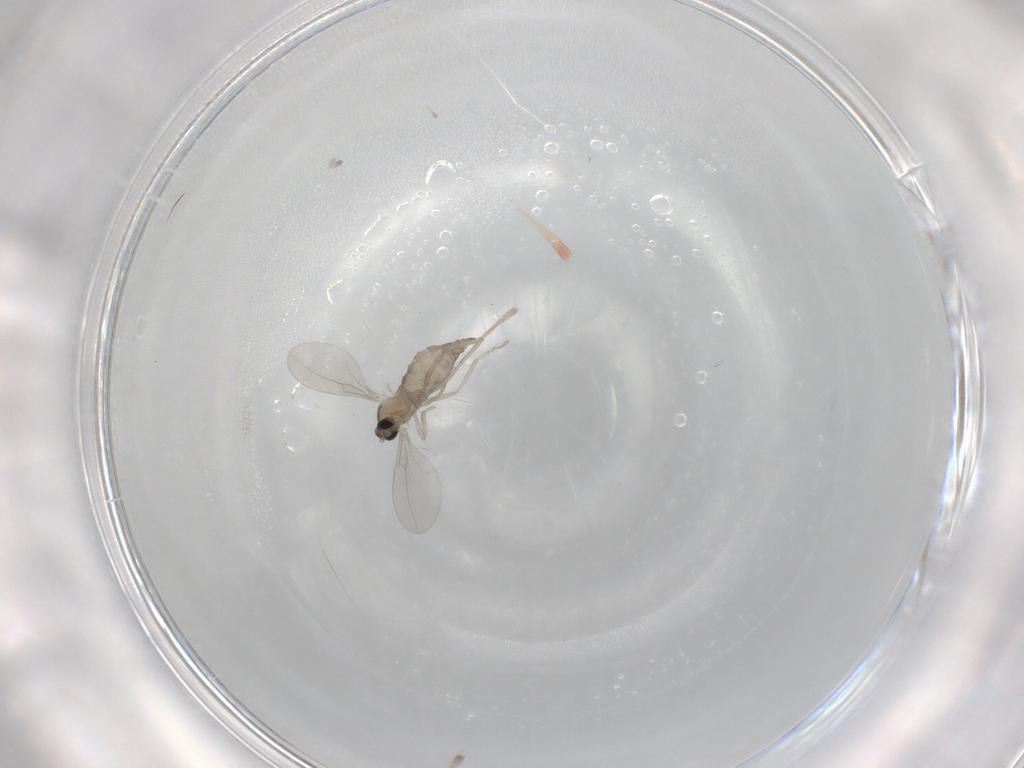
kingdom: Animalia
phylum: Arthropoda
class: Insecta
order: Diptera
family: Cecidomyiidae
